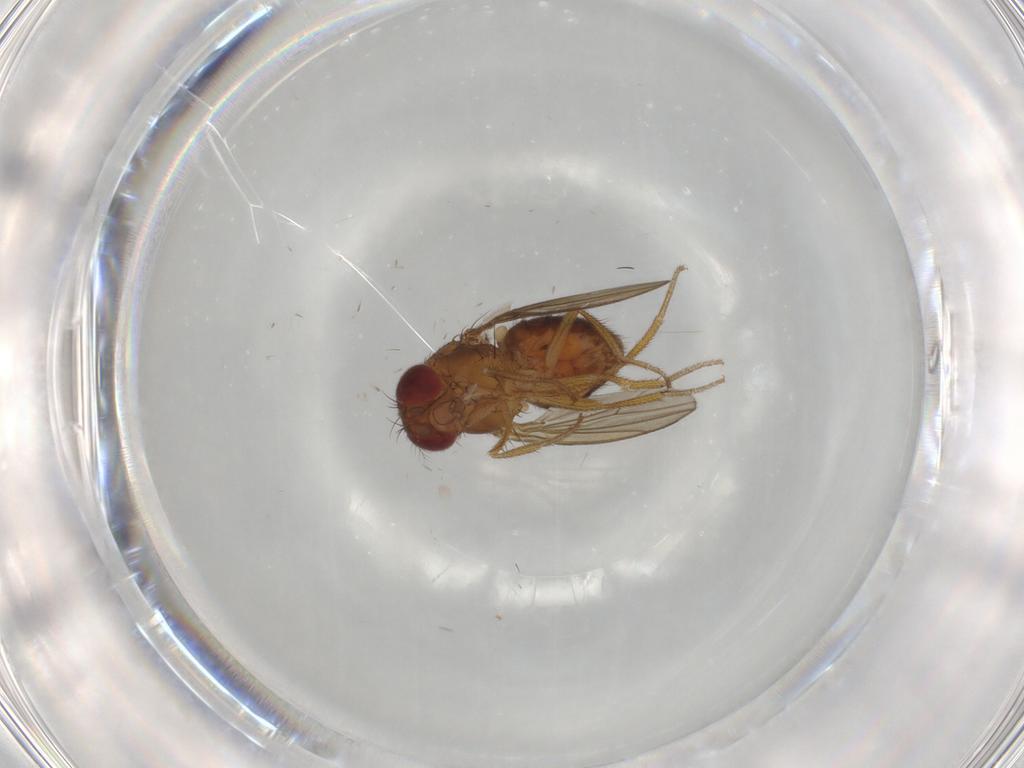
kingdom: Animalia
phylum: Arthropoda
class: Insecta
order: Diptera
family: Drosophilidae
